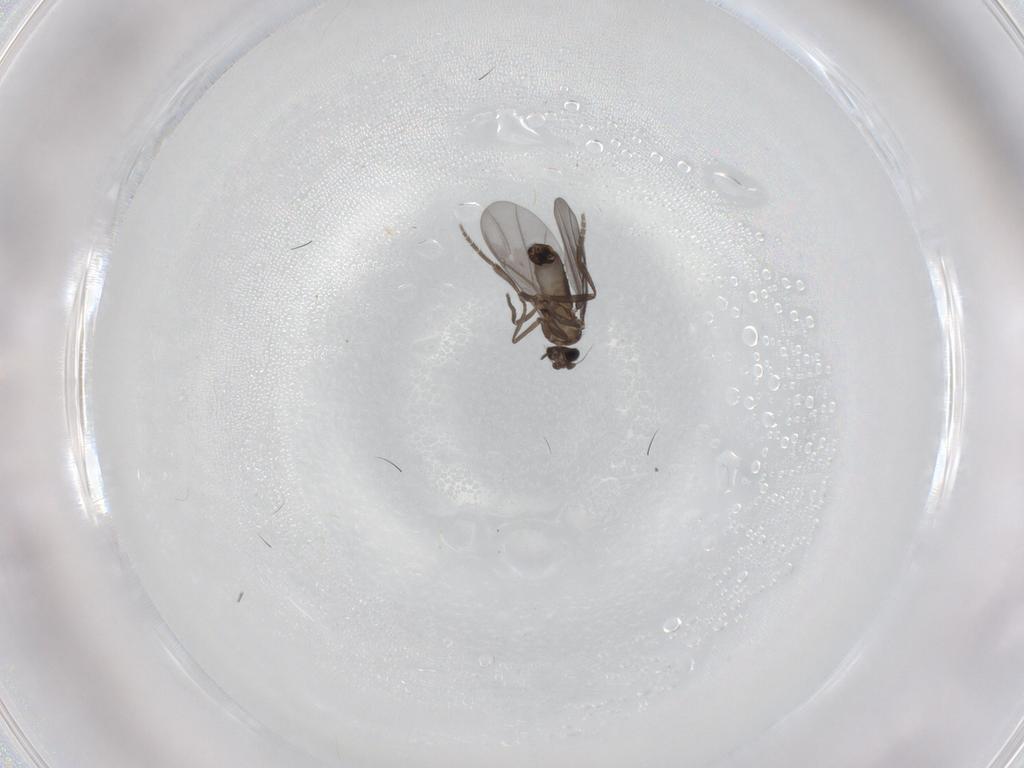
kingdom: Animalia
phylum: Arthropoda
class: Insecta
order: Diptera
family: Phoridae
